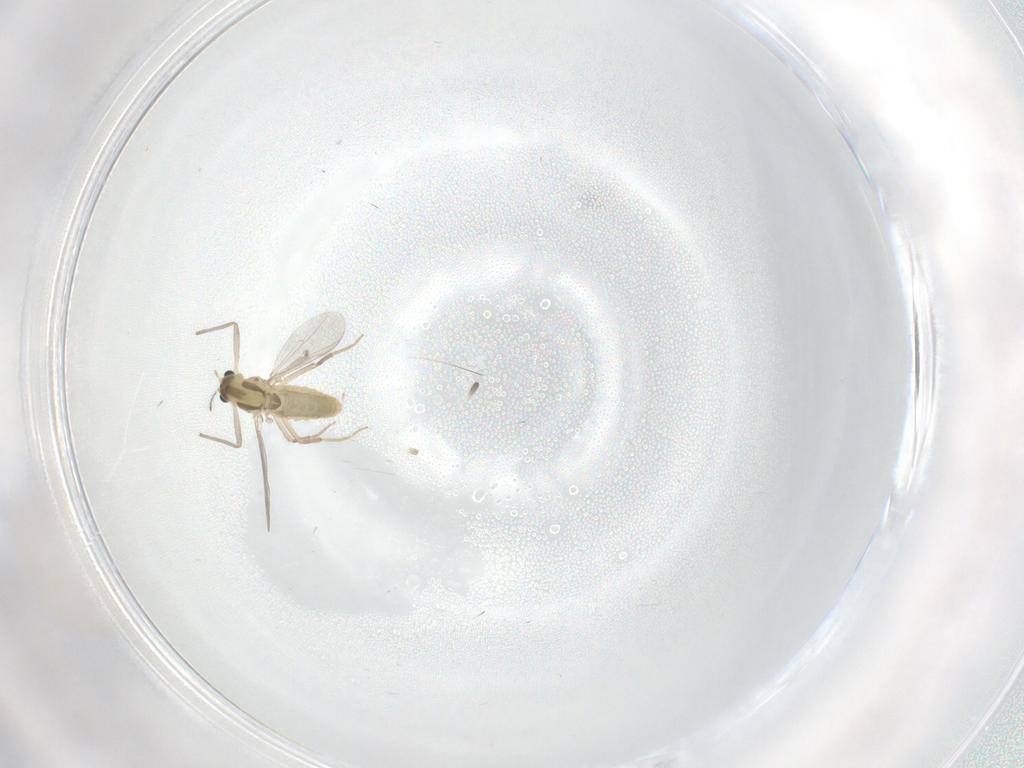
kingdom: Animalia
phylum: Arthropoda
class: Insecta
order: Diptera
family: Chironomidae
